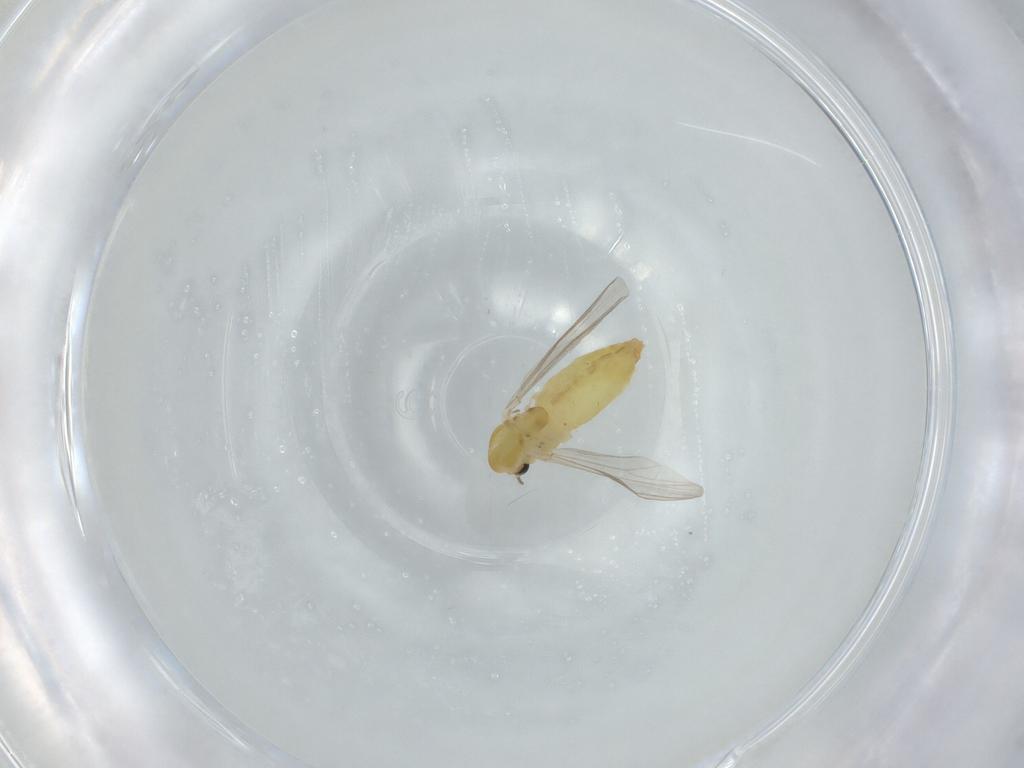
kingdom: Animalia
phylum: Arthropoda
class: Insecta
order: Diptera
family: Chironomidae
